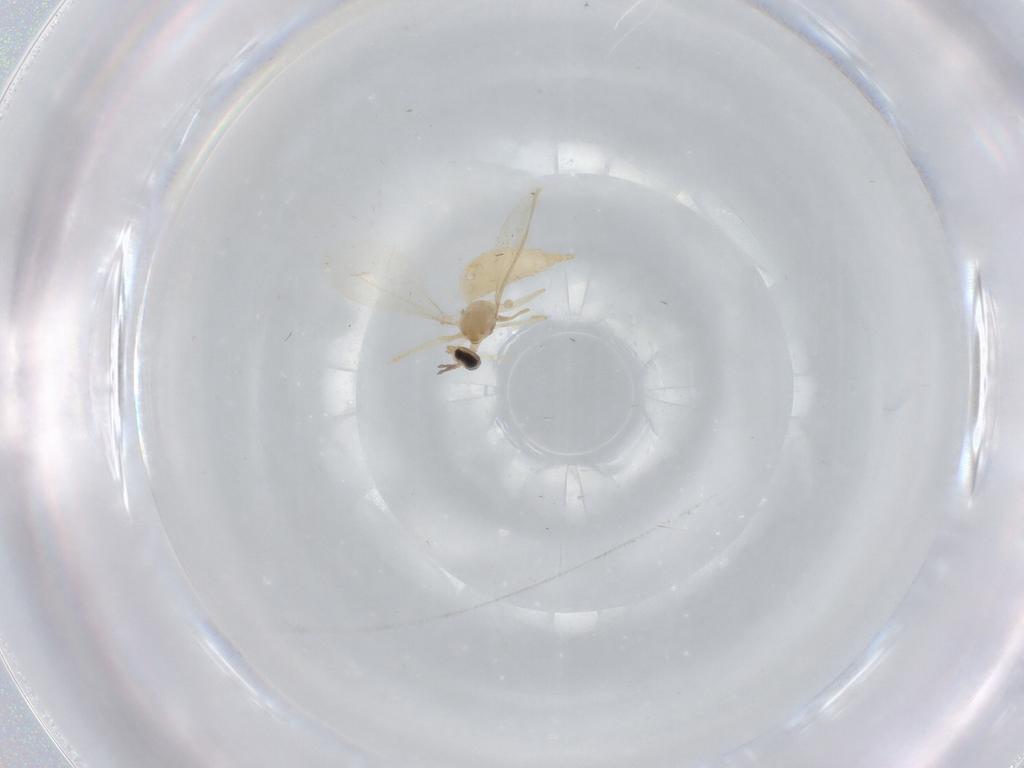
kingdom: Animalia
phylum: Arthropoda
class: Insecta
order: Diptera
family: Cecidomyiidae
